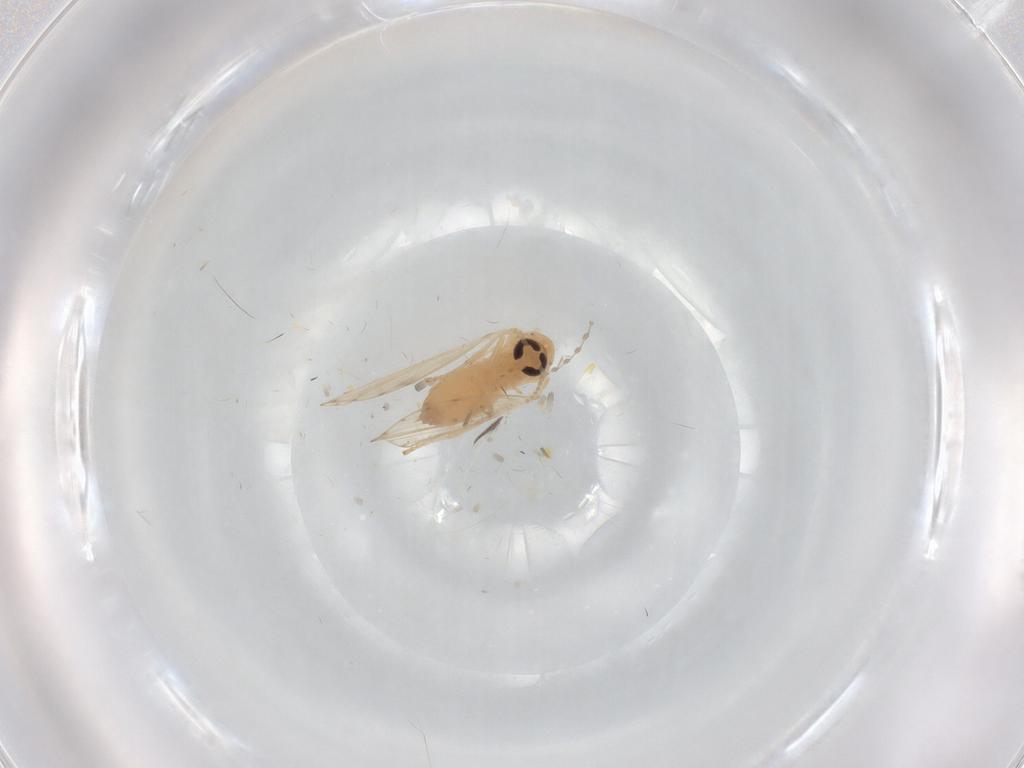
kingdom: Animalia
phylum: Arthropoda
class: Insecta
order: Diptera
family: Psychodidae
